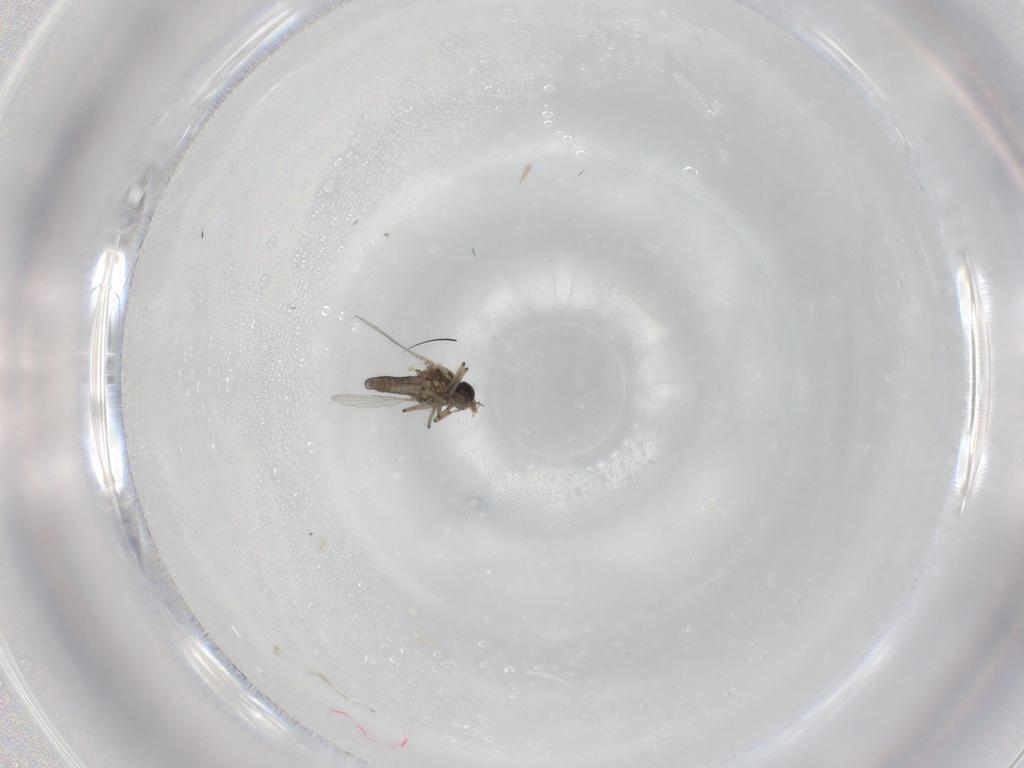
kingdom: Animalia
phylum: Arthropoda
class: Insecta
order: Diptera
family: Ceratopogonidae
